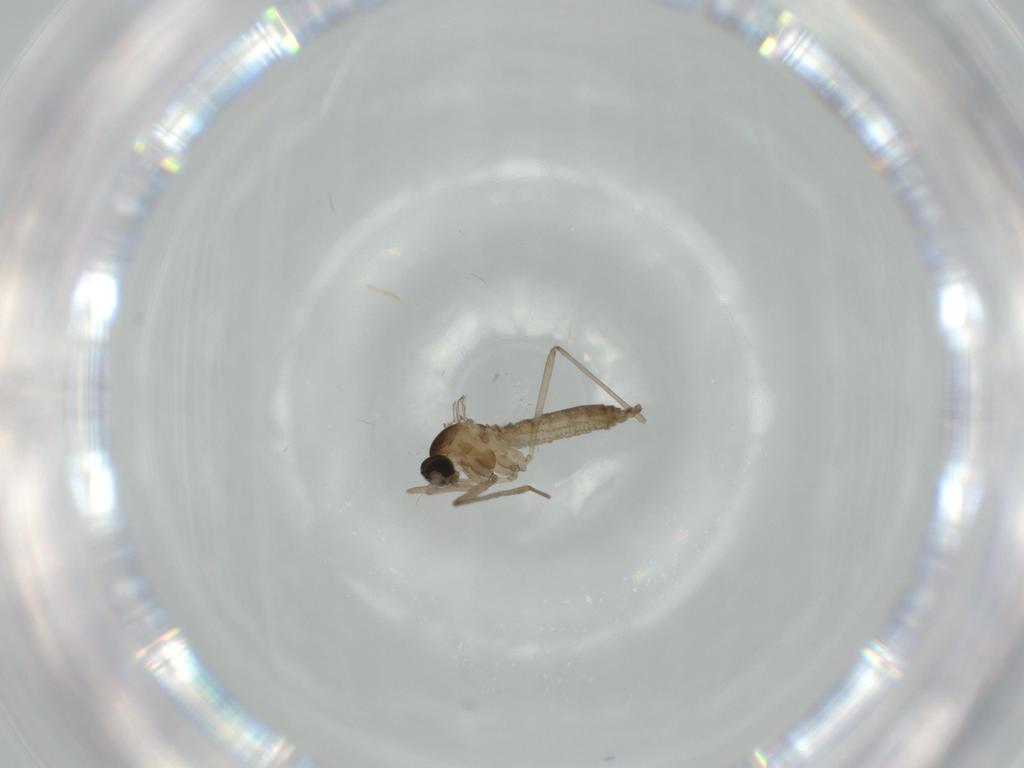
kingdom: Animalia
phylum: Arthropoda
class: Insecta
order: Diptera
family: Cecidomyiidae
